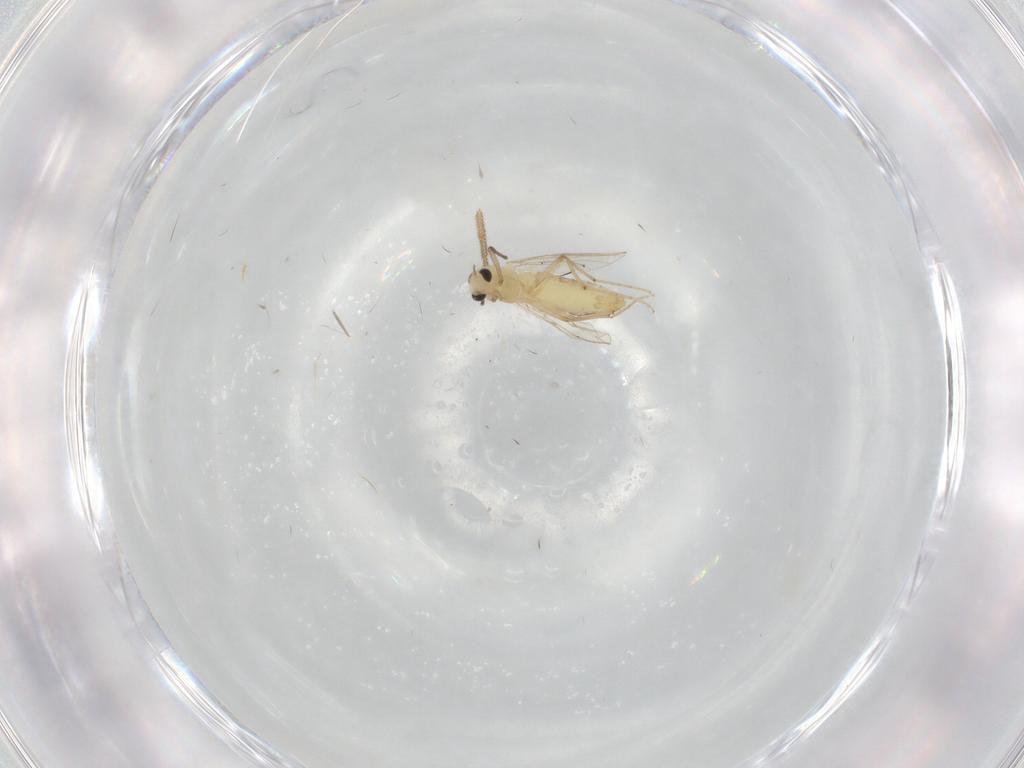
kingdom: Animalia
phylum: Arthropoda
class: Insecta
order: Diptera
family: Chironomidae
